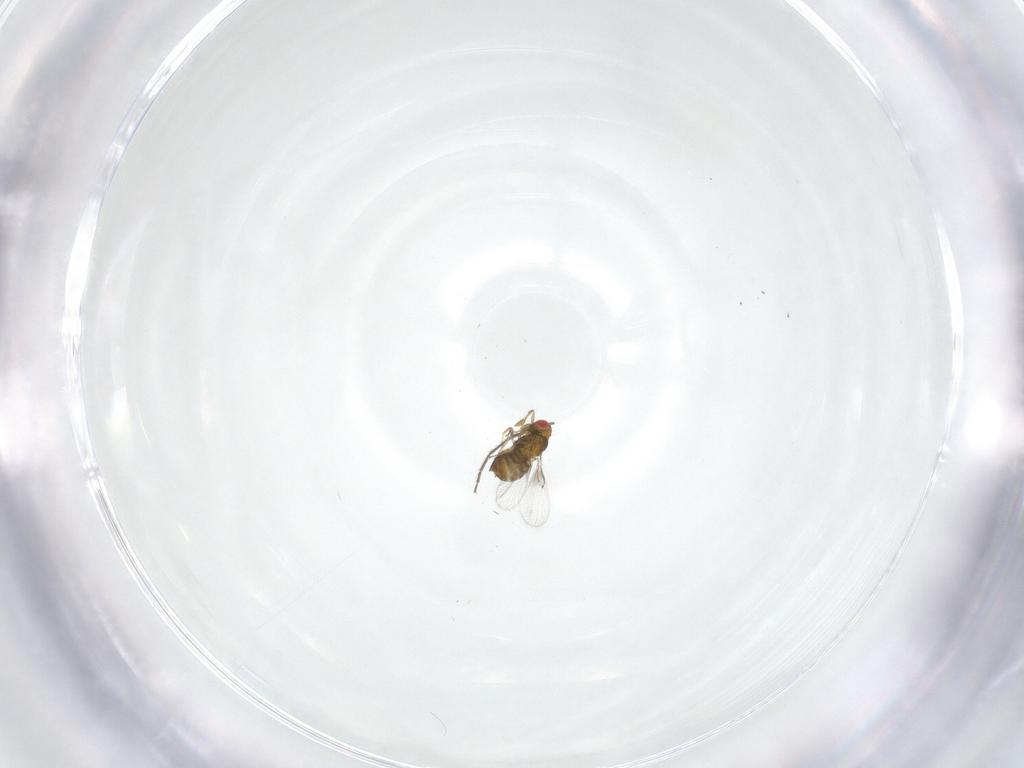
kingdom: Animalia
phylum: Arthropoda
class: Insecta
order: Hymenoptera
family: Trichogrammatidae
